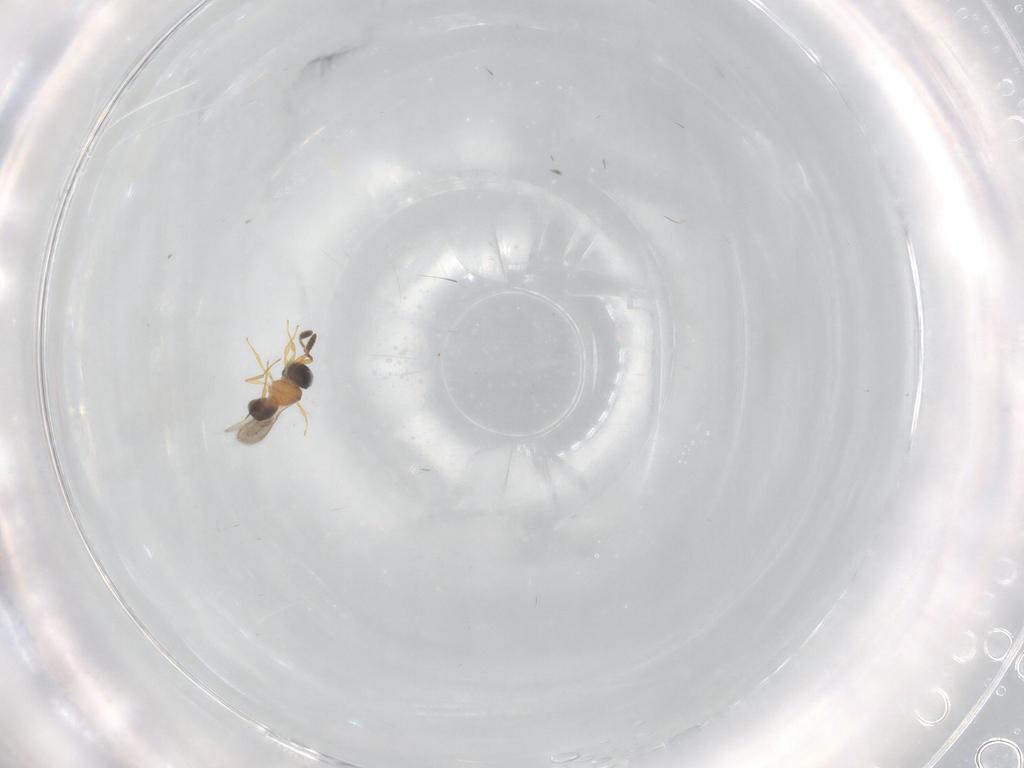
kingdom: Animalia
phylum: Arthropoda
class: Insecta
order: Hymenoptera
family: Scelionidae
